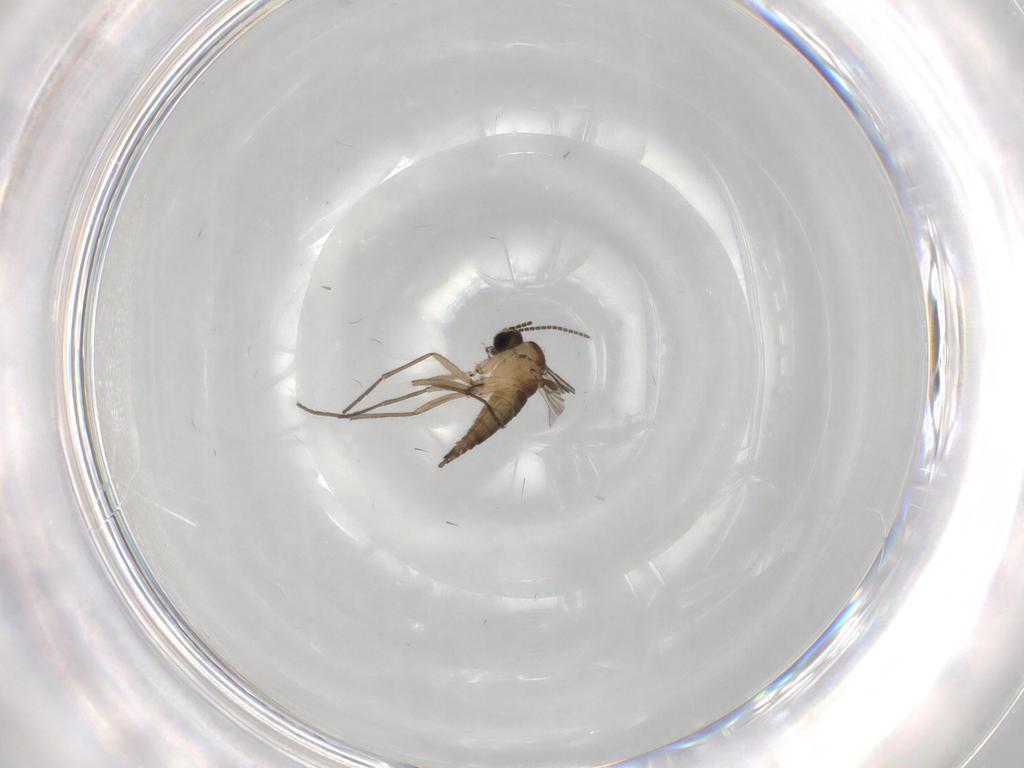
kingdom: Animalia
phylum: Arthropoda
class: Insecta
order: Diptera
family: Sciaridae
